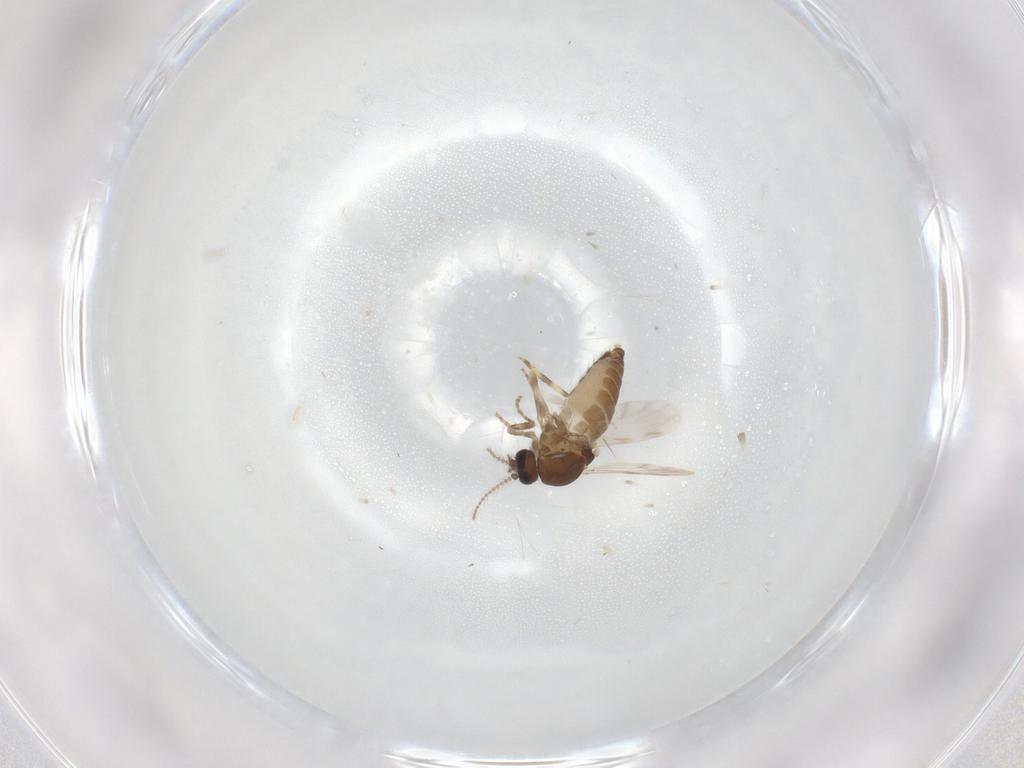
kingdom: Animalia
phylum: Arthropoda
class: Insecta
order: Diptera
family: Ceratopogonidae
